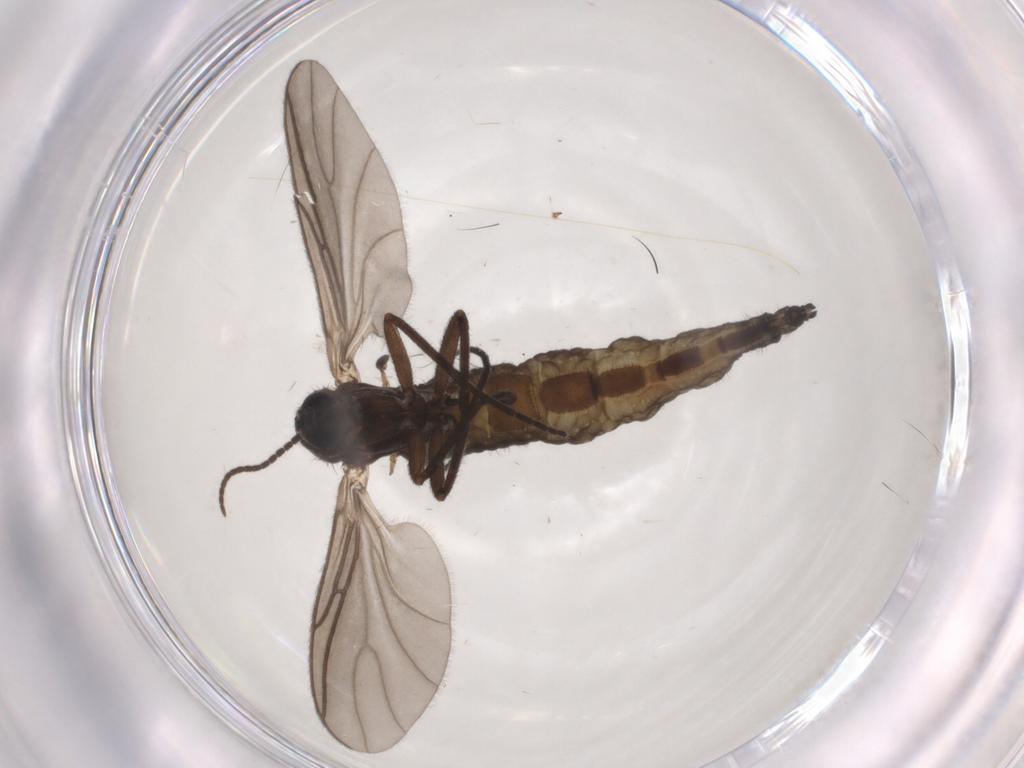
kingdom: Animalia
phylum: Arthropoda
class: Insecta
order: Diptera
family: Sciaridae
